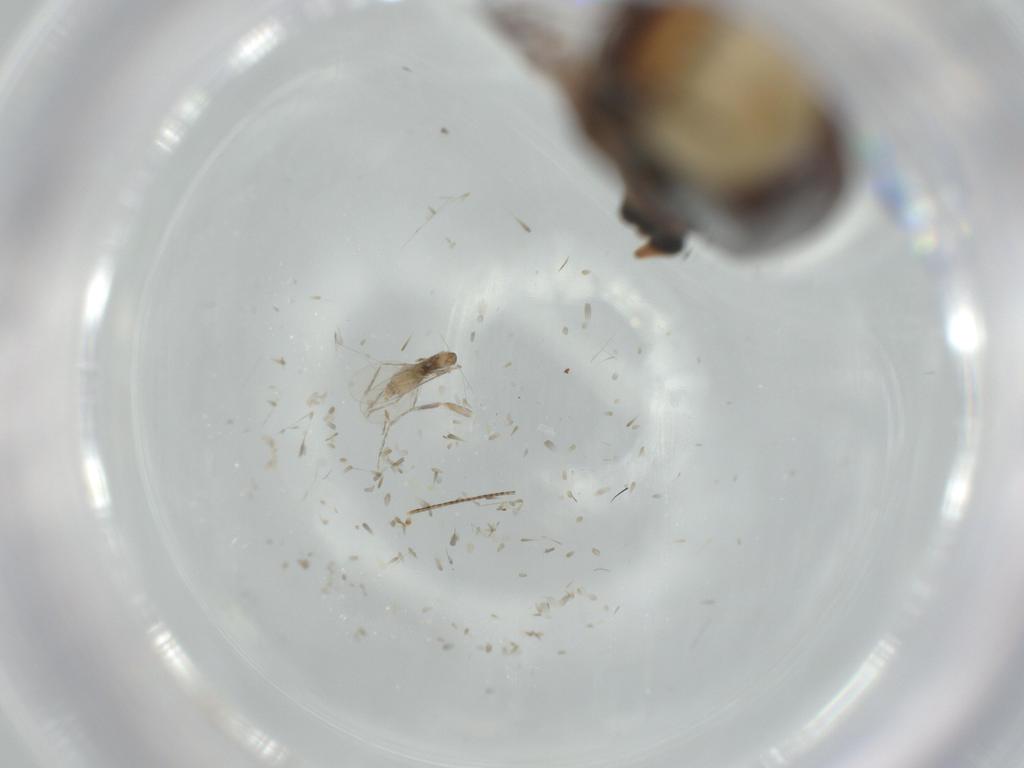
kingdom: Animalia
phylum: Arthropoda
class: Insecta
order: Coleoptera
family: Mordellidae
